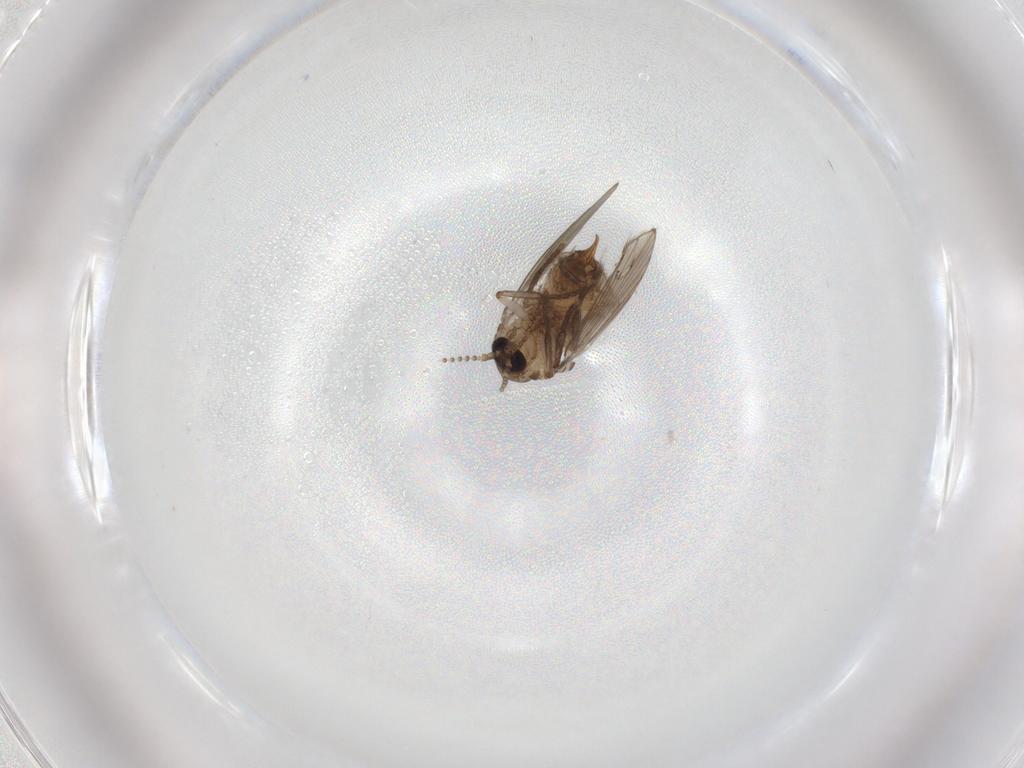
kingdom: Animalia
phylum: Arthropoda
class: Insecta
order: Diptera
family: Psychodidae
